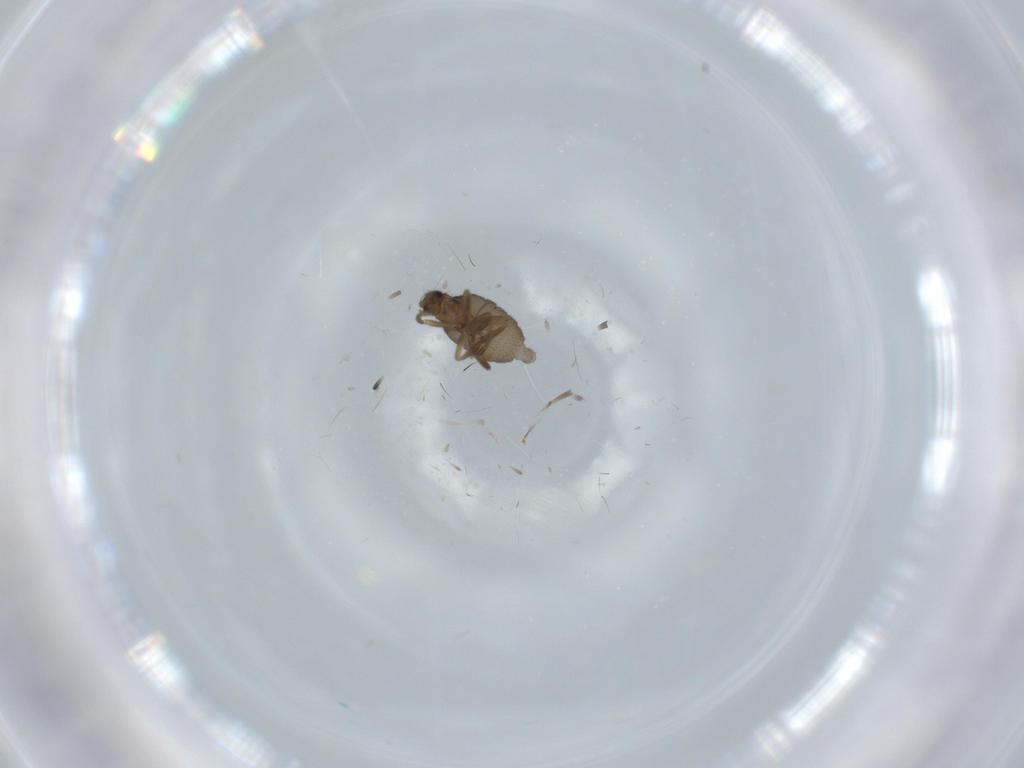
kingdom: Animalia
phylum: Arthropoda
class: Insecta
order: Diptera
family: Phoridae
